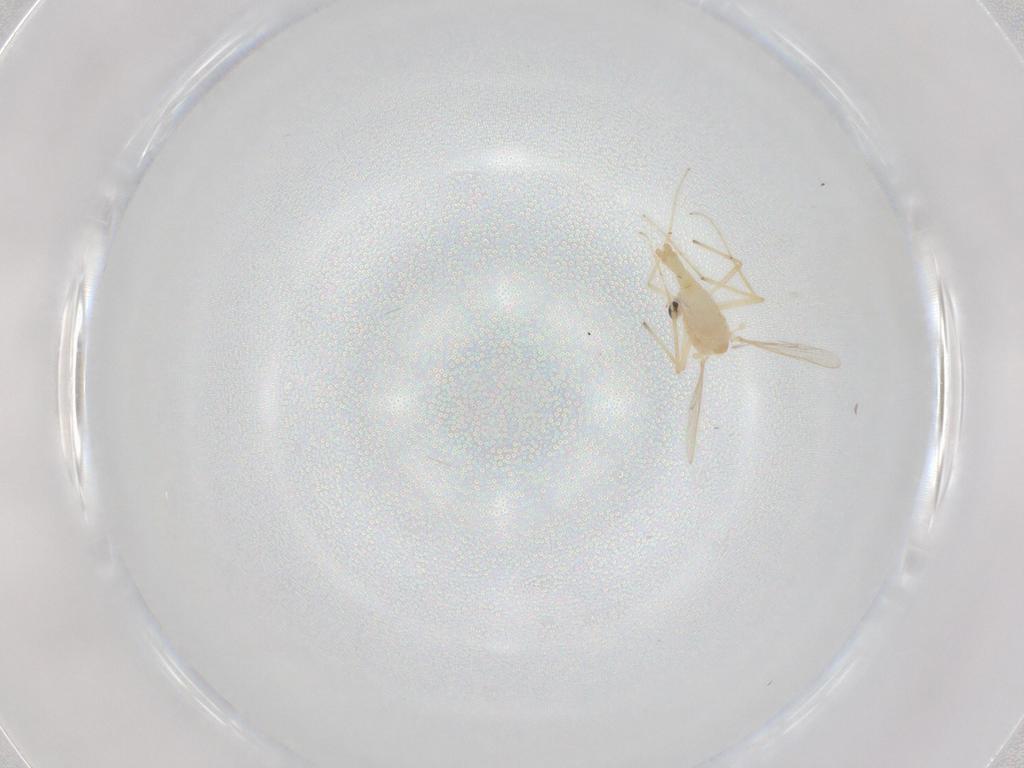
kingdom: Animalia
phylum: Arthropoda
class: Insecta
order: Diptera
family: Chironomidae
